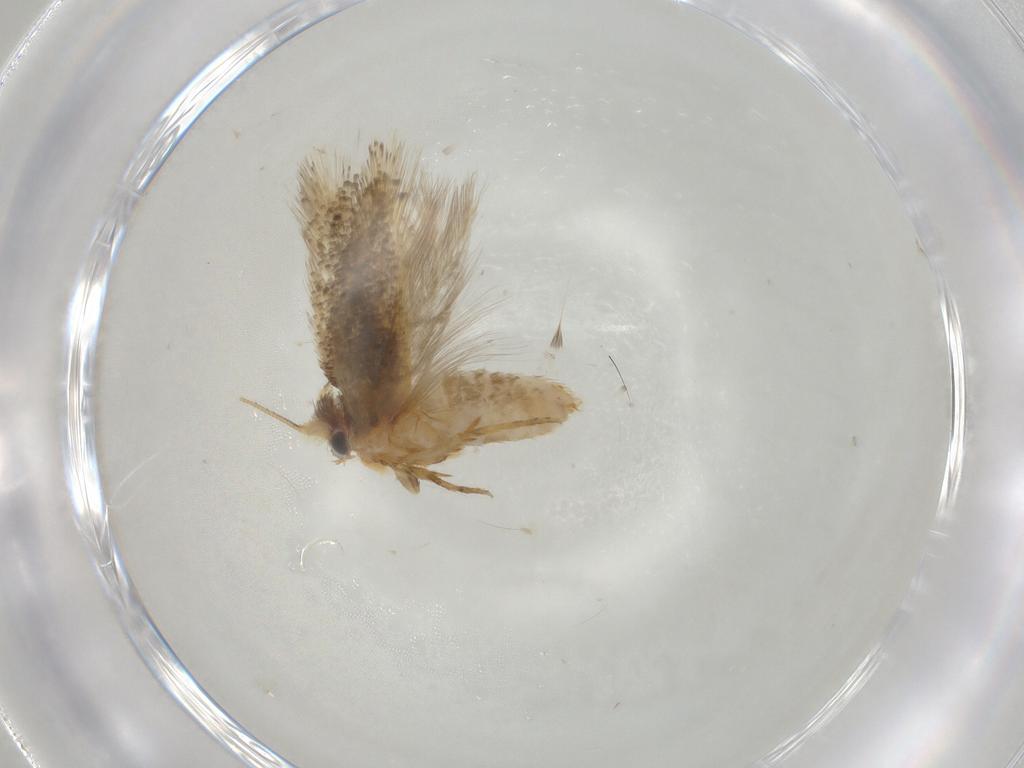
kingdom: Animalia
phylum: Arthropoda
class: Insecta
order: Lepidoptera
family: Nepticulidae
